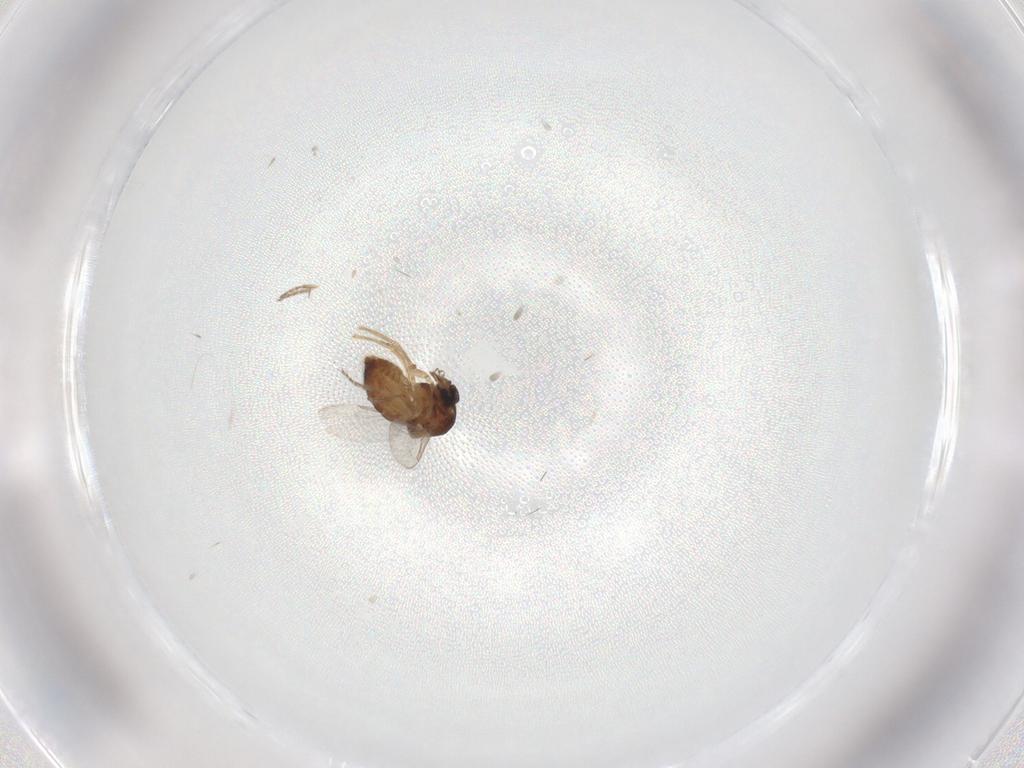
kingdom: Animalia
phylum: Arthropoda
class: Insecta
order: Diptera
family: Ceratopogonidae
